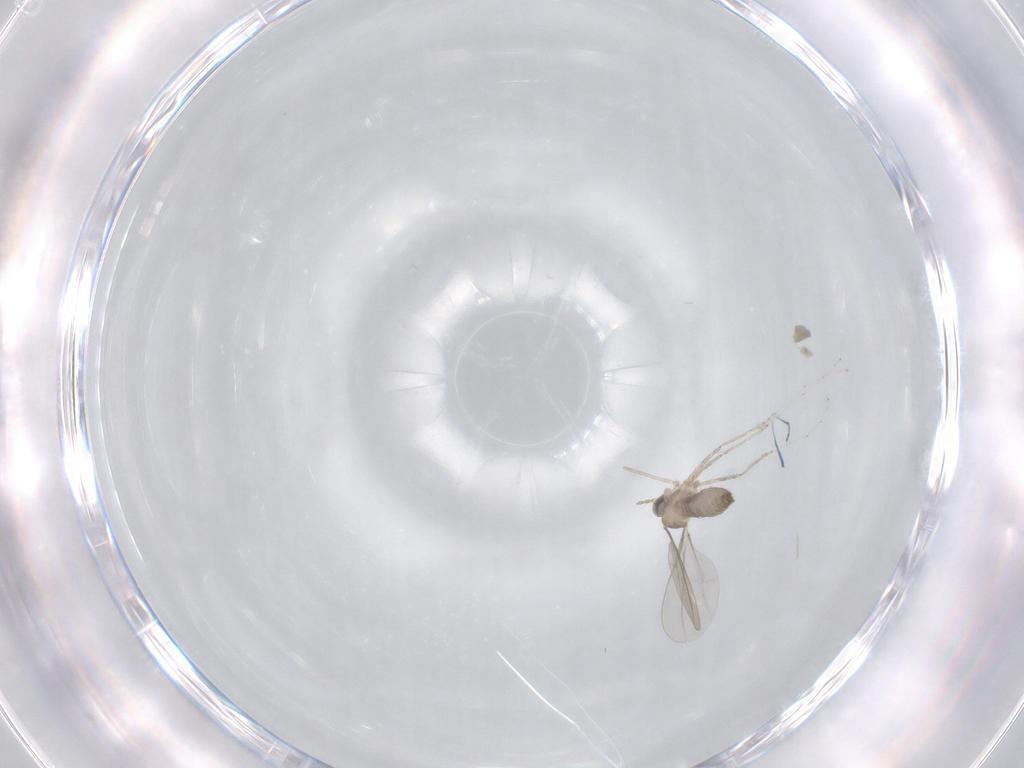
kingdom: Animalia
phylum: Arthropoda
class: Insecta
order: Diptera
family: Cecidomyiidae
